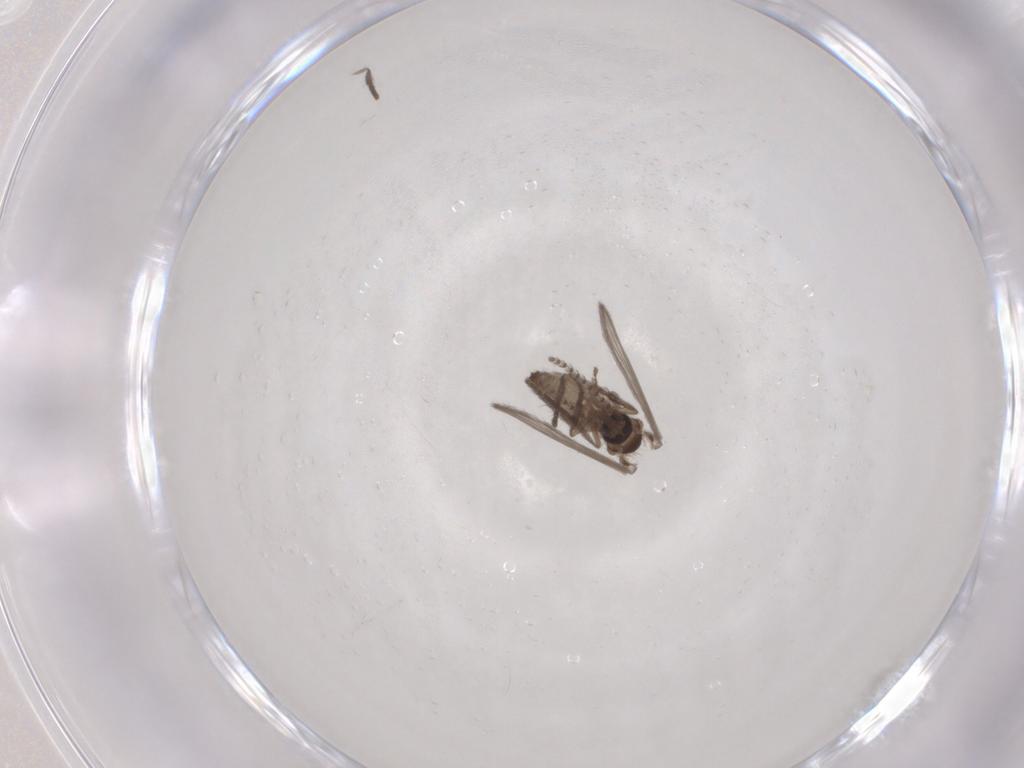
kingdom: Animalia
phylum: Arthropoda
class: Insecta
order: Diptera
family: Psychodidae
